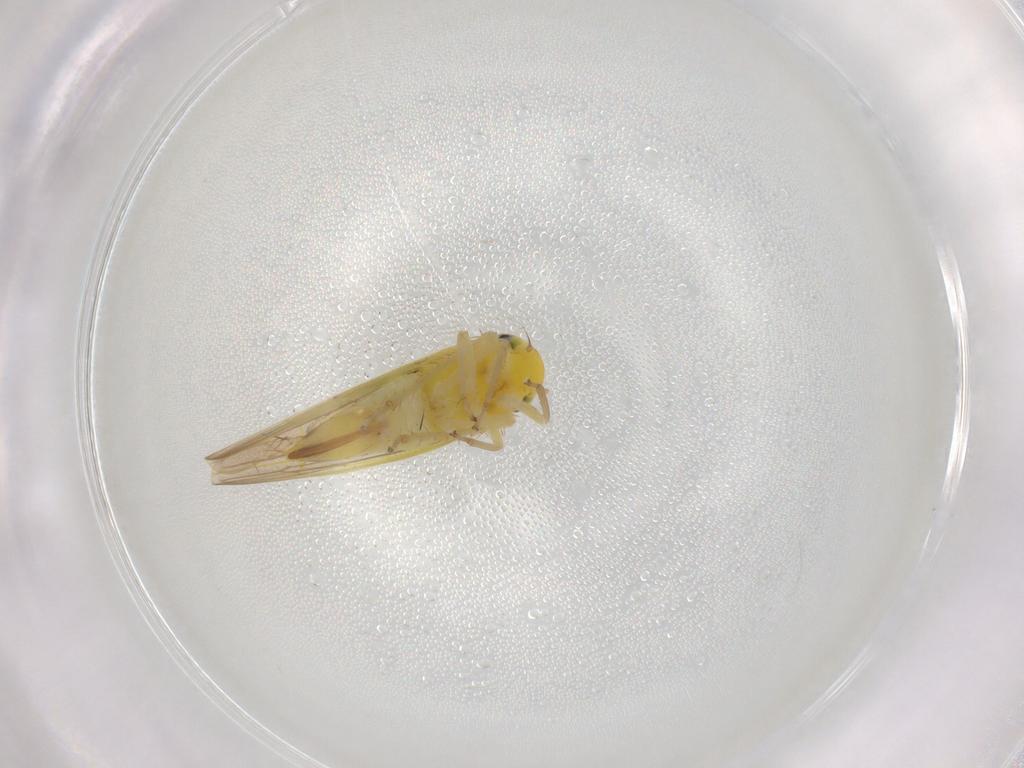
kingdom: Animalia
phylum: Arthropoda
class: Insecta
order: Hemiptera
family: Cicadellidae
